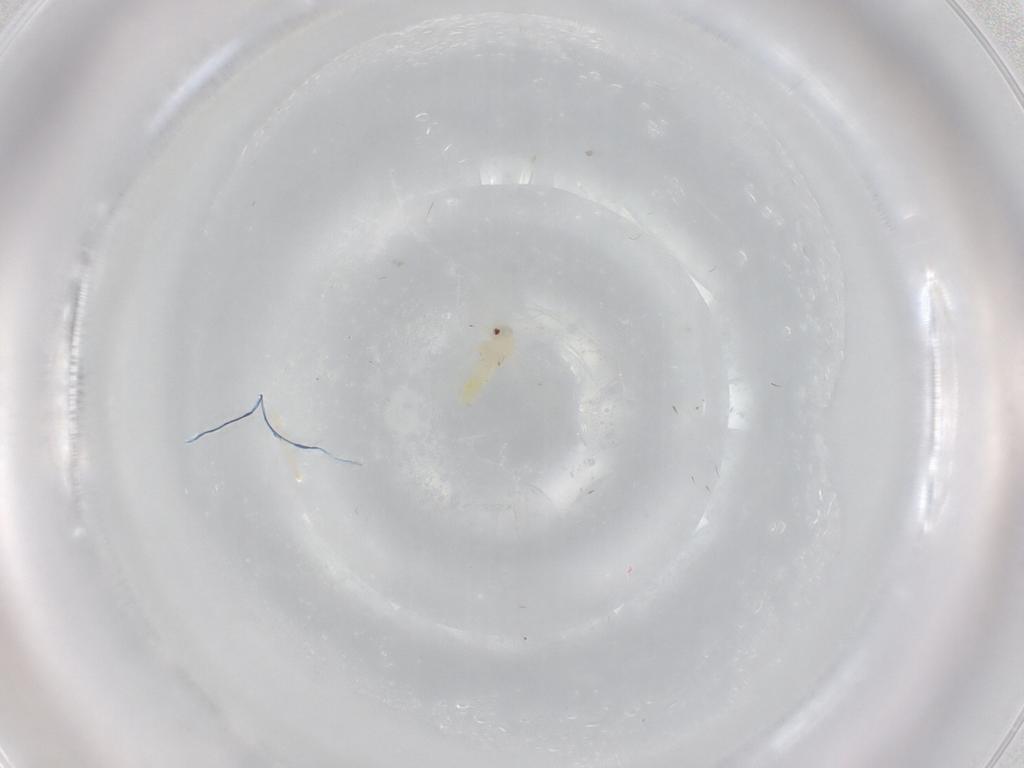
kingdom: Animalia
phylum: Arthropoda
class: Insecta
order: Hemiptera
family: Aleyrodidae
